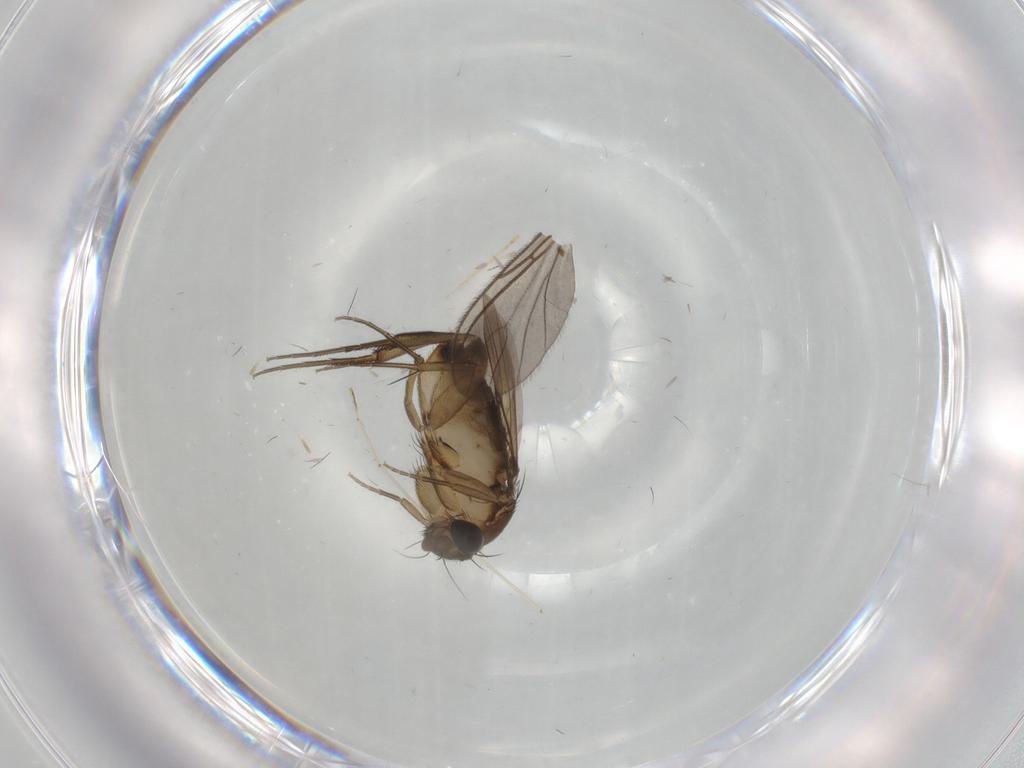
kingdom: Animalia
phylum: Arthropoda
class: Insecta
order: Diptera
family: Phoridae
